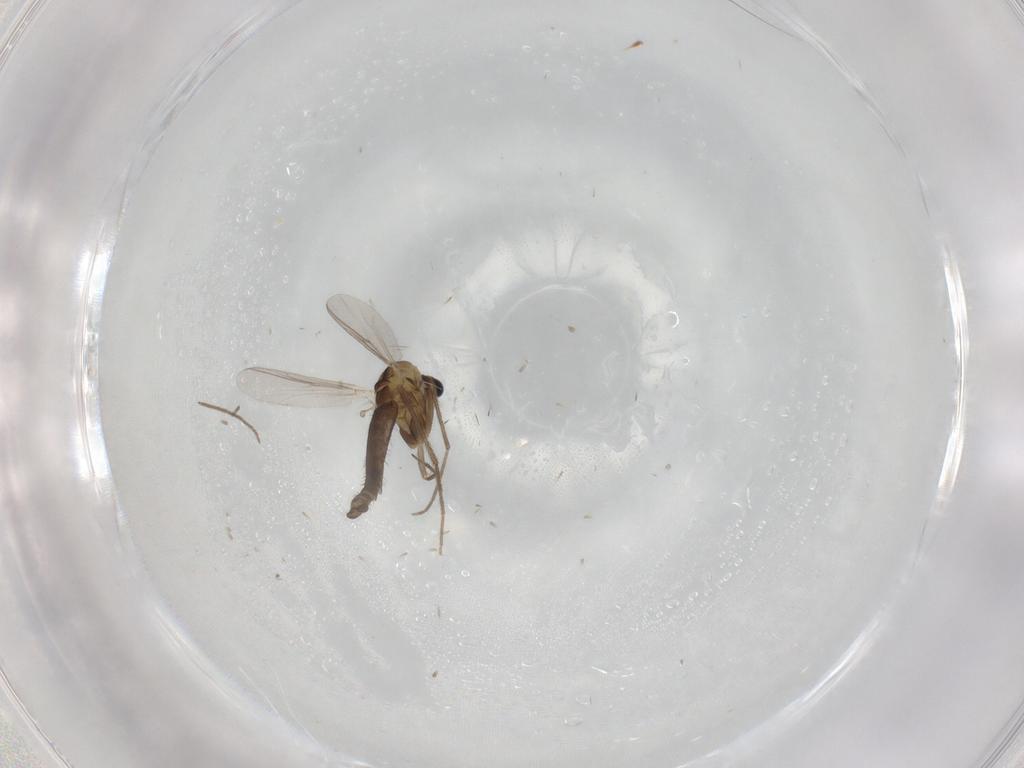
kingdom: Animalia
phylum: Arthropoda
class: Insecta
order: Diptera
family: Chironomidae
